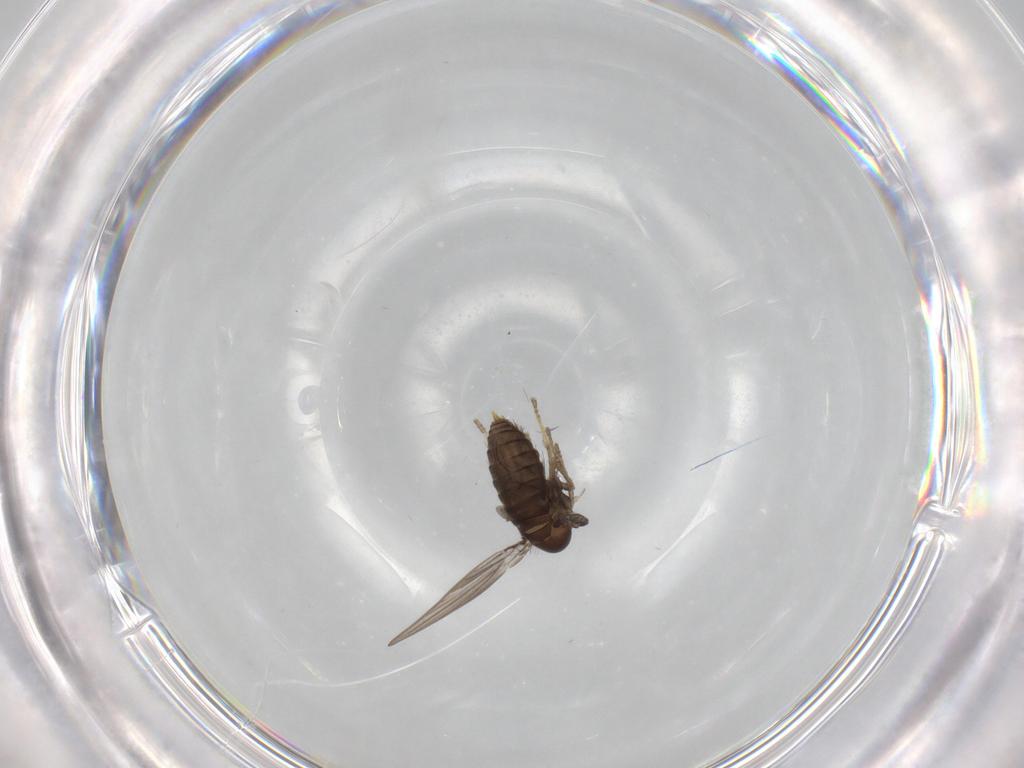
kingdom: Animalia
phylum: Arthropoda
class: Insecta
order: Diptera
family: Psychodidae
